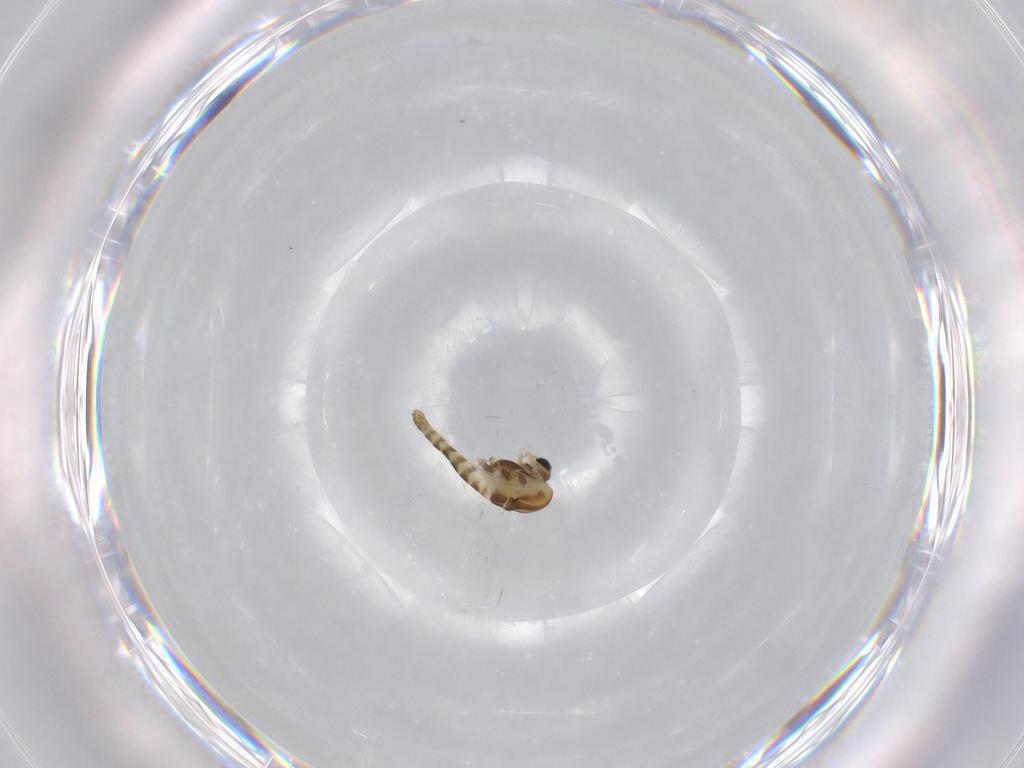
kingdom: Animalia
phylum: Arthropoda
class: Insecta
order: Diptera
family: Chironomidae
